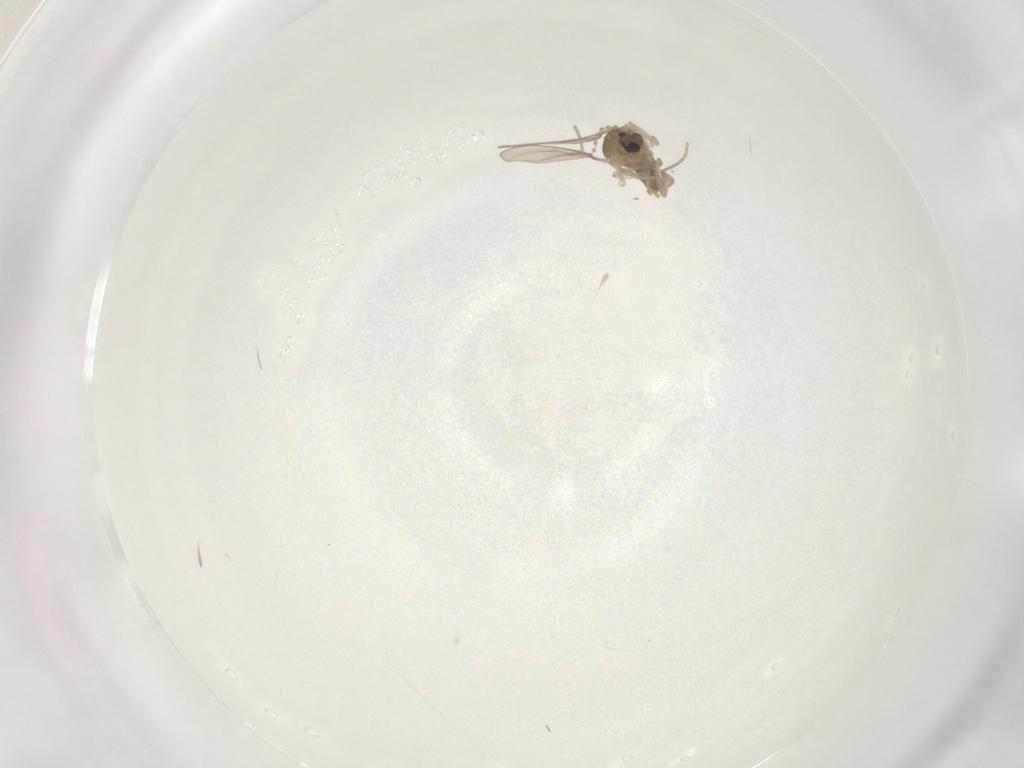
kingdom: Animalia
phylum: Arthropoda
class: Insecta
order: Diptera
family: Cecidomyiidae
